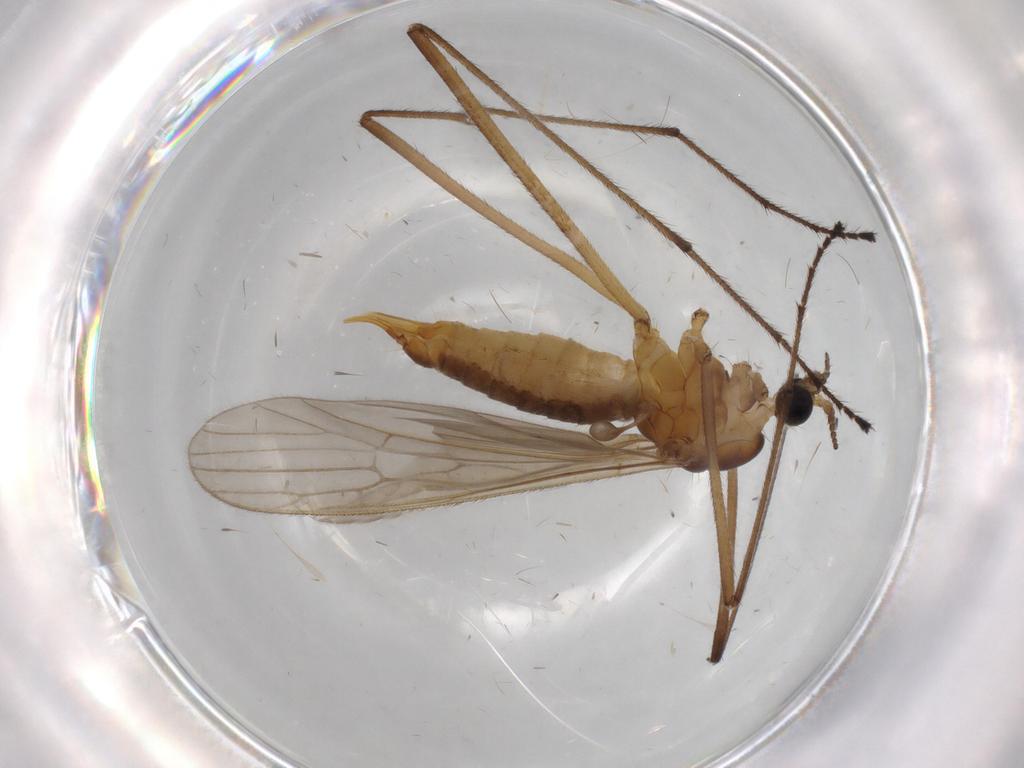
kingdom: Animalia
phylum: Arthropoda
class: Insecta
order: Diptera
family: Limoniidae
